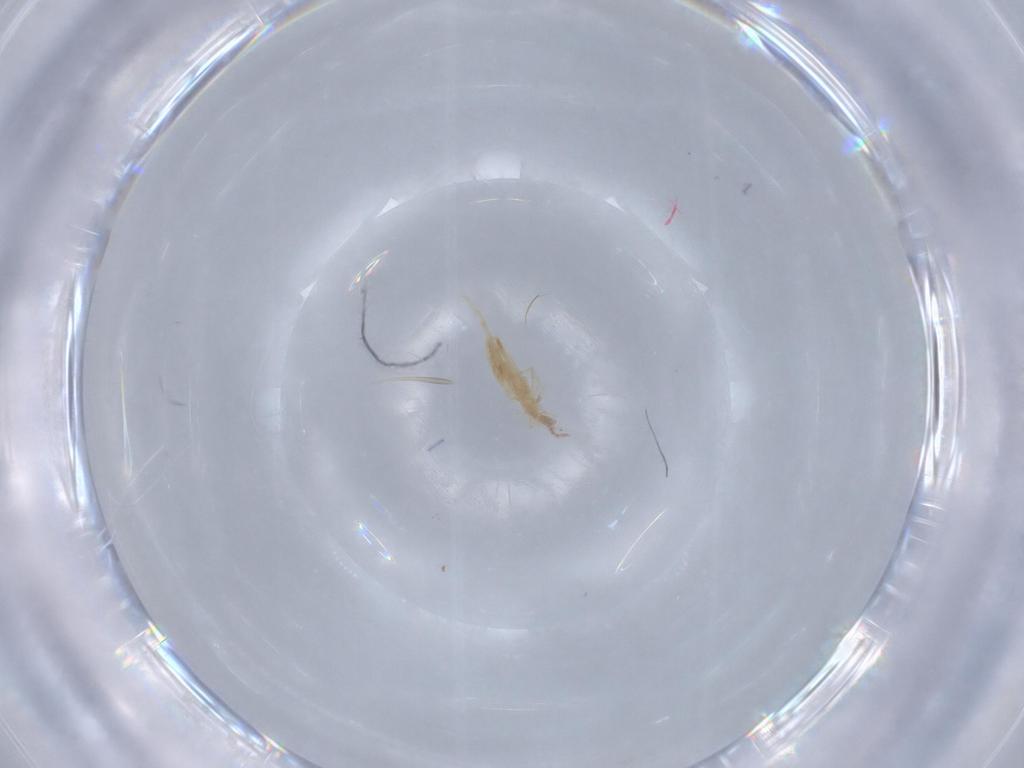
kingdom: Animalia
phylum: Arthropoda
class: Collembola
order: Entomobryomorpha
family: Entomobryidae
